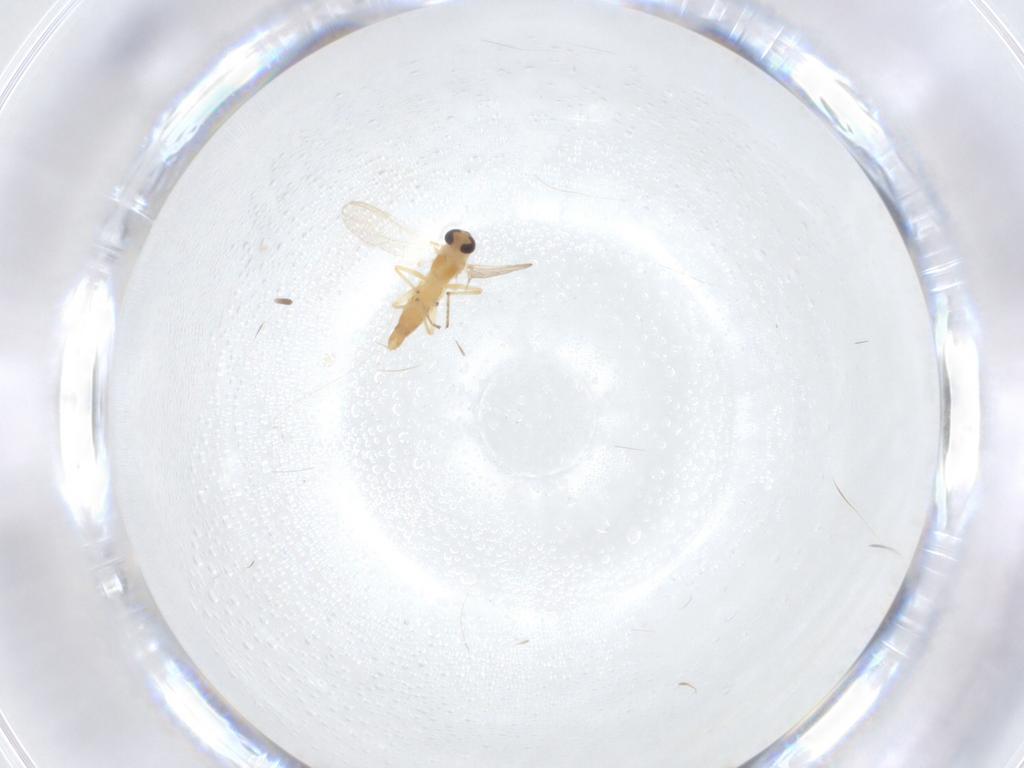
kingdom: Animalia
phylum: Arthropoda
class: Insecta
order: Diptera
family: Chironomidae
